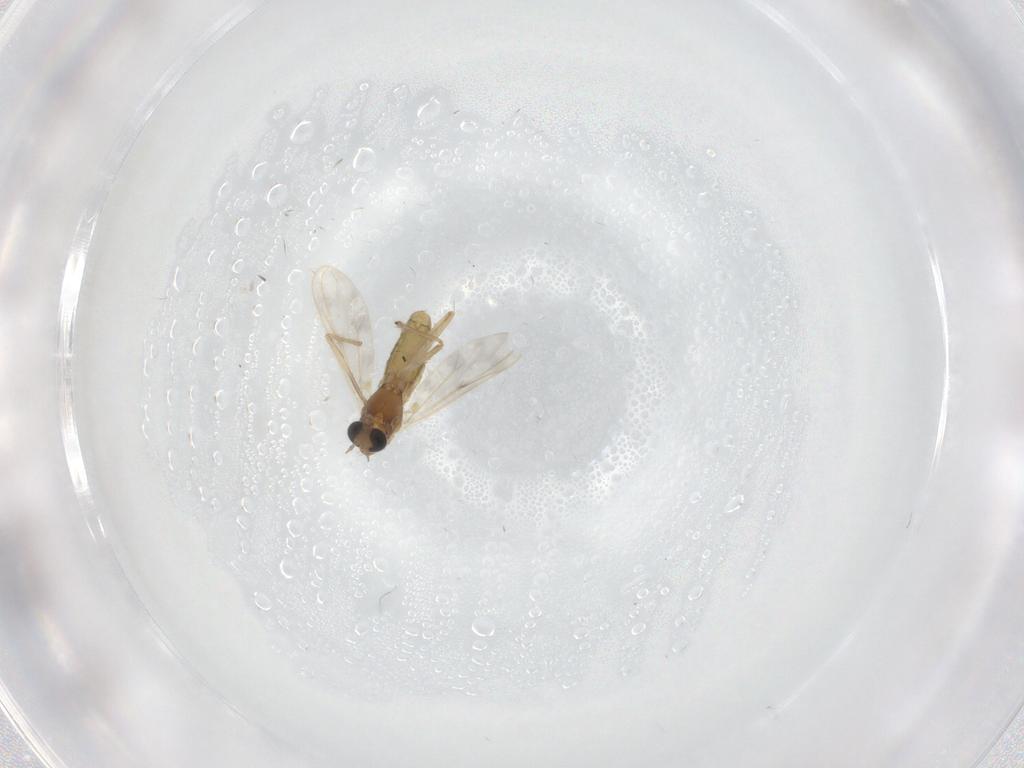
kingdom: Animalia
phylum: Arthropoda
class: Insecta
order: Diptera
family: Chironomidae
